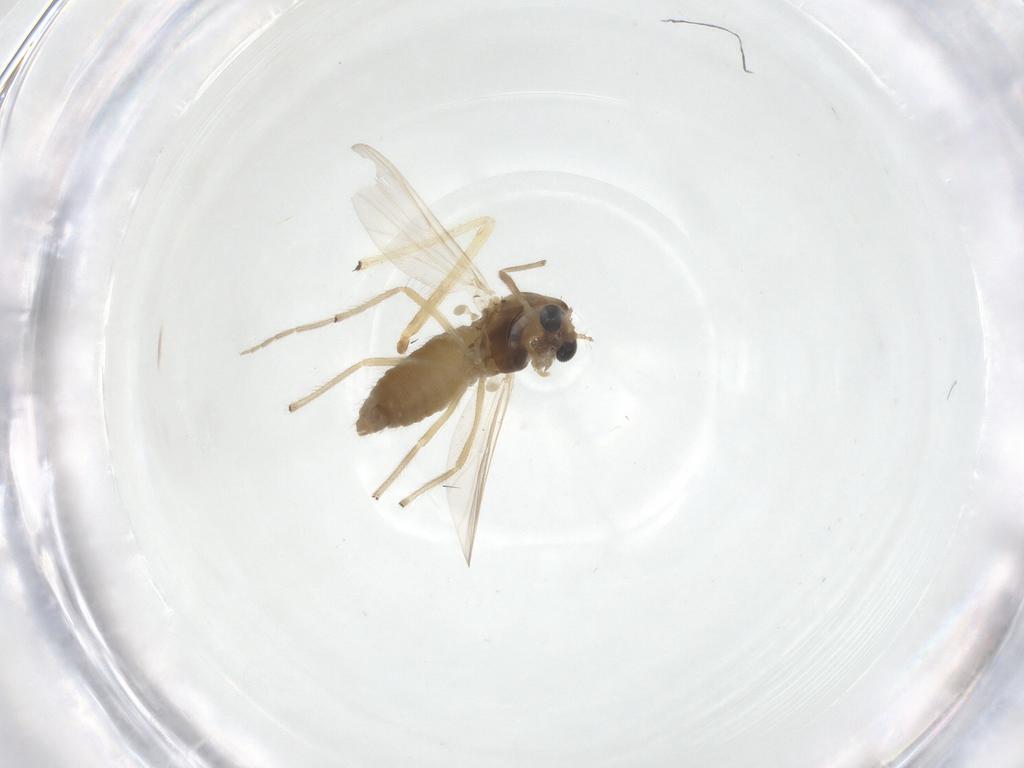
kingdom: Animalia
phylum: Arthropoda
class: Insecta
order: Diptera
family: Chironomidae
